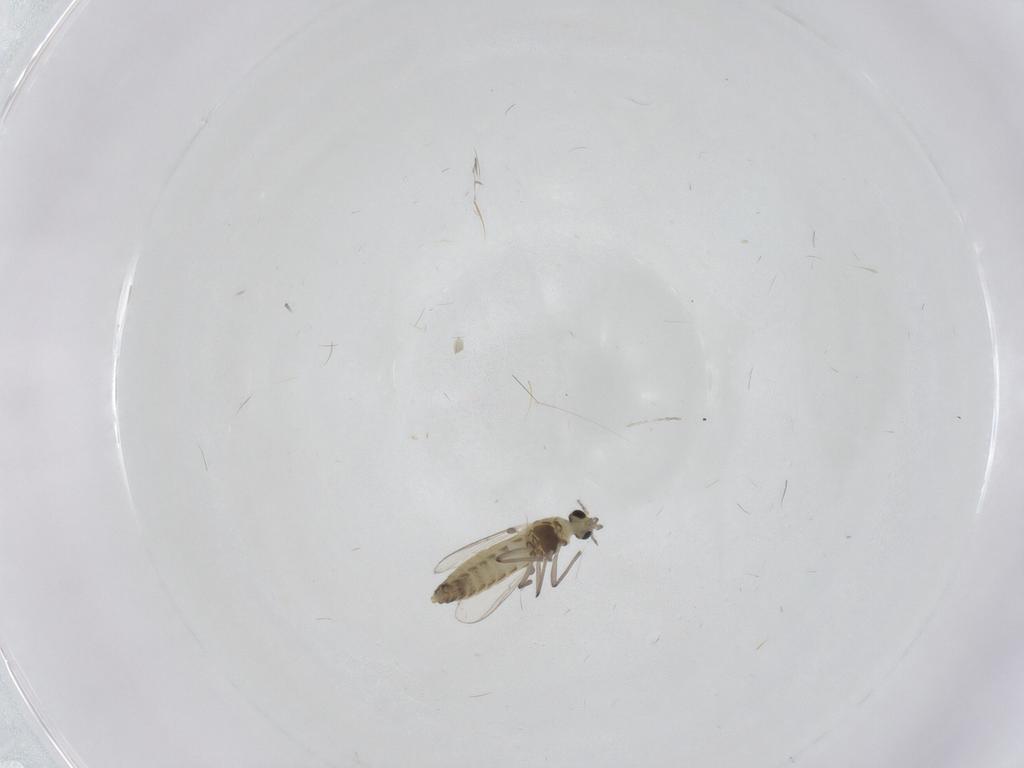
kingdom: Animalia
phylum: Arthropoda
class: Insecta
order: Diptera
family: Chironomidae
